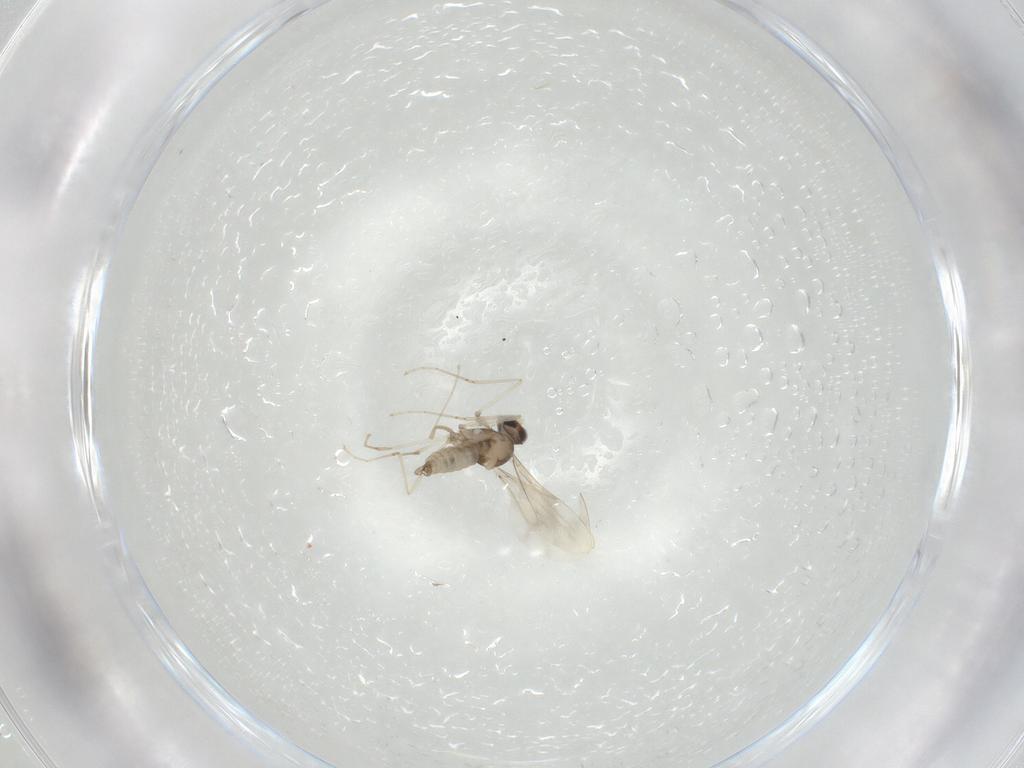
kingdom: Animalia
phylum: Arthropoda
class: Insecta
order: Diptera
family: Cecidomyiidae
